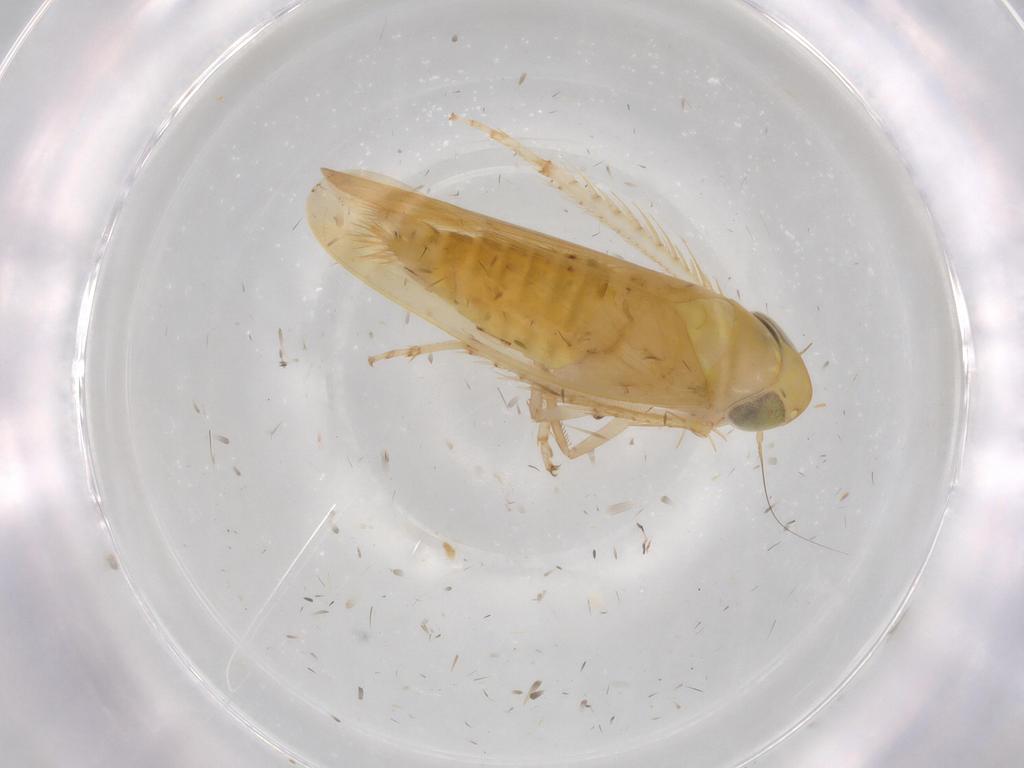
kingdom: Animalia
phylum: Arthropoda
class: Insecta
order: Hemiptera
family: Cicadellidae
